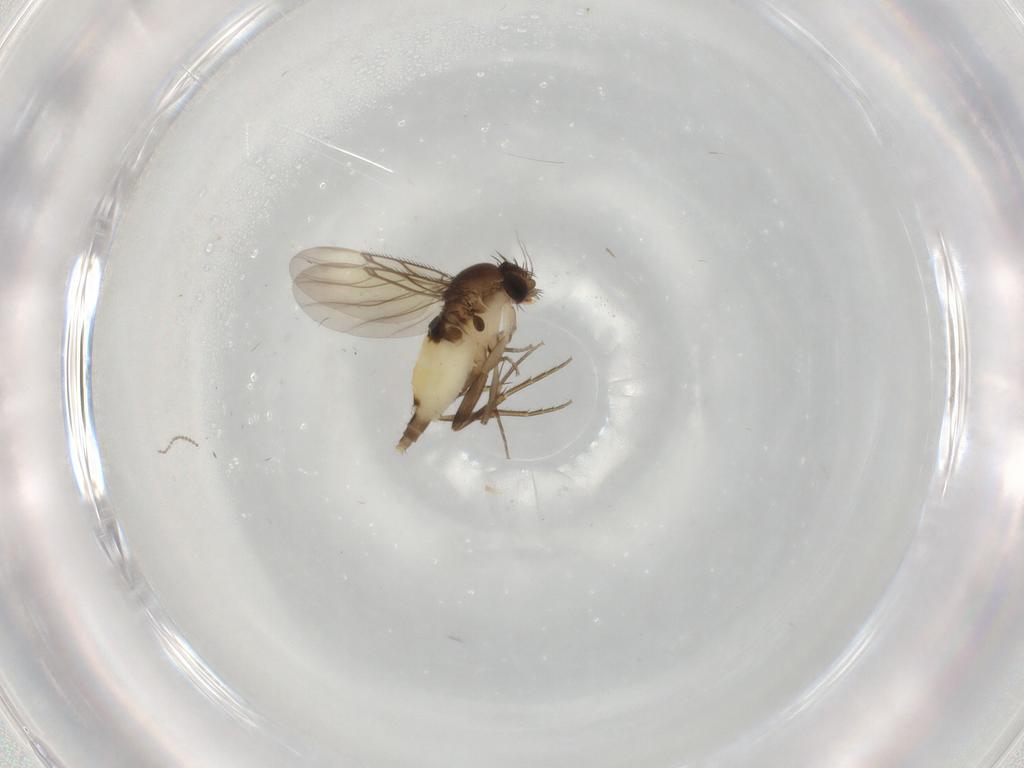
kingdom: Animalia
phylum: Arthropoda
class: Insecta
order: Diptera
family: Phoridae
